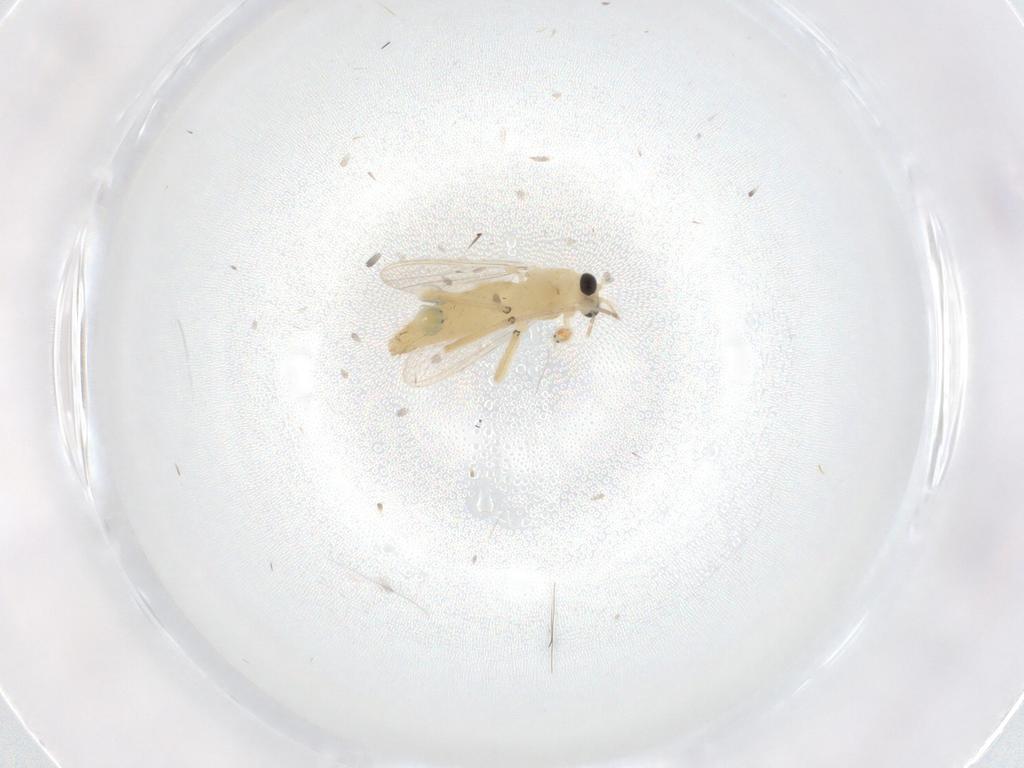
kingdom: Animalia
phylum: Arthropoda
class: Insecta
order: Diptera
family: Chironomidae
